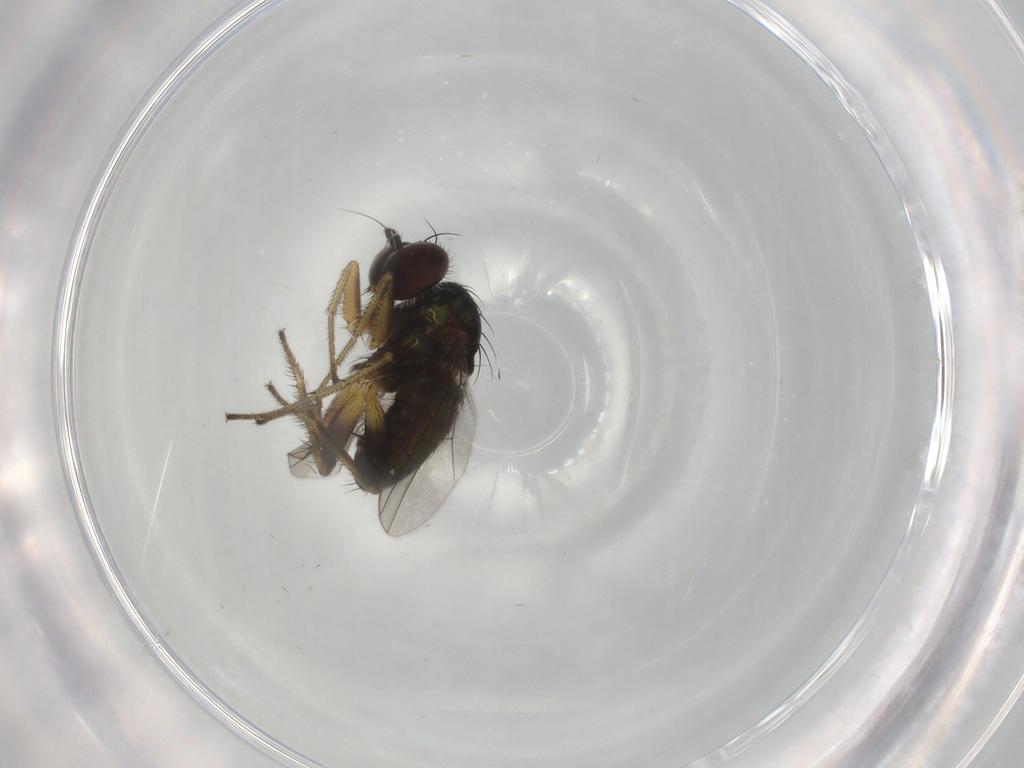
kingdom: Animalia
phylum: Arthropoda
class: Insecta
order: Diptera
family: Dolichopodidae
